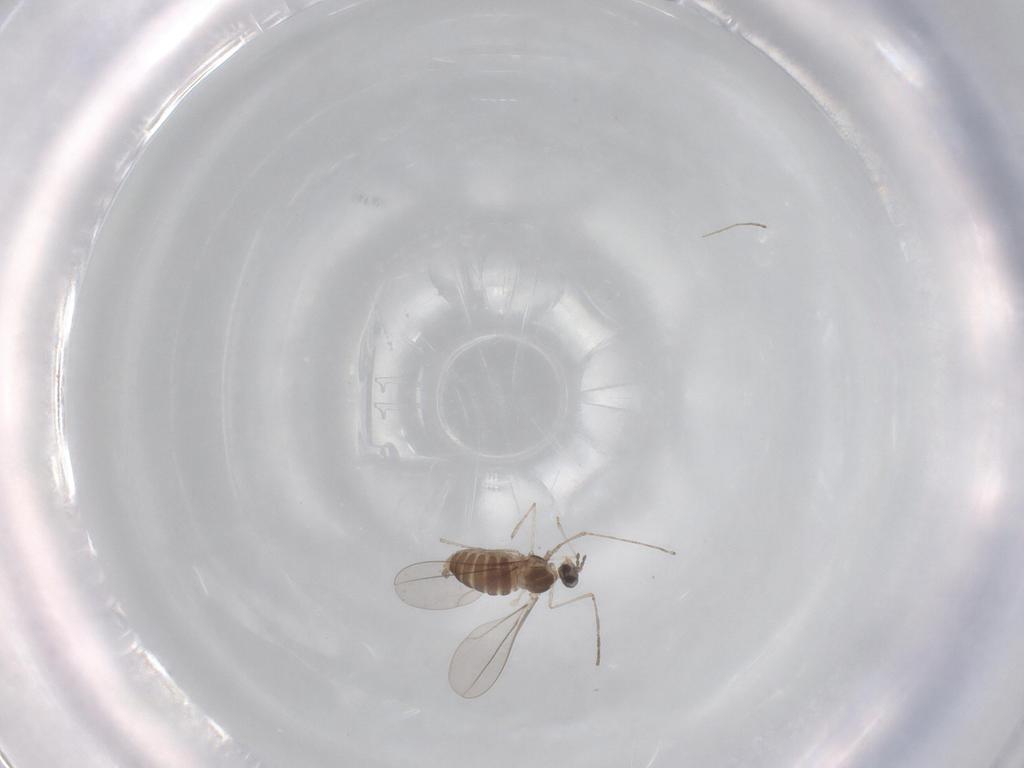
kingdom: Animalia
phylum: Arthropoda
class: Insecta
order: Diptera
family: Cecidomyiidae
